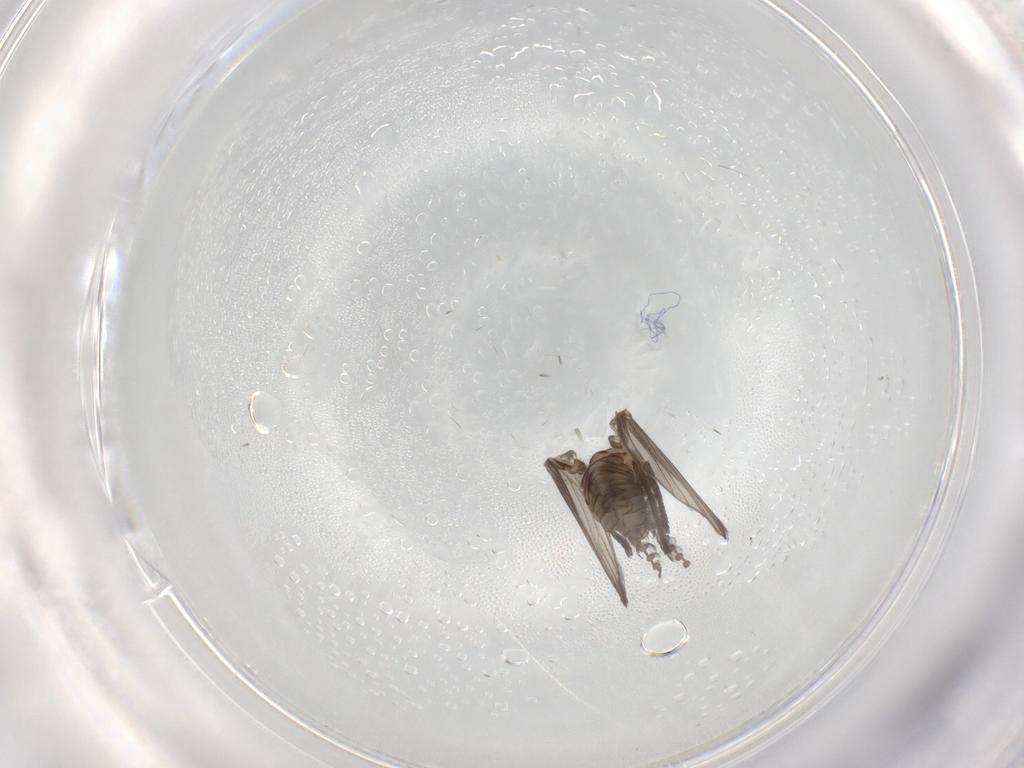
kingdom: Animalia
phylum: Arthropoda
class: Insecta
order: Diptera
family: Psychodidae
